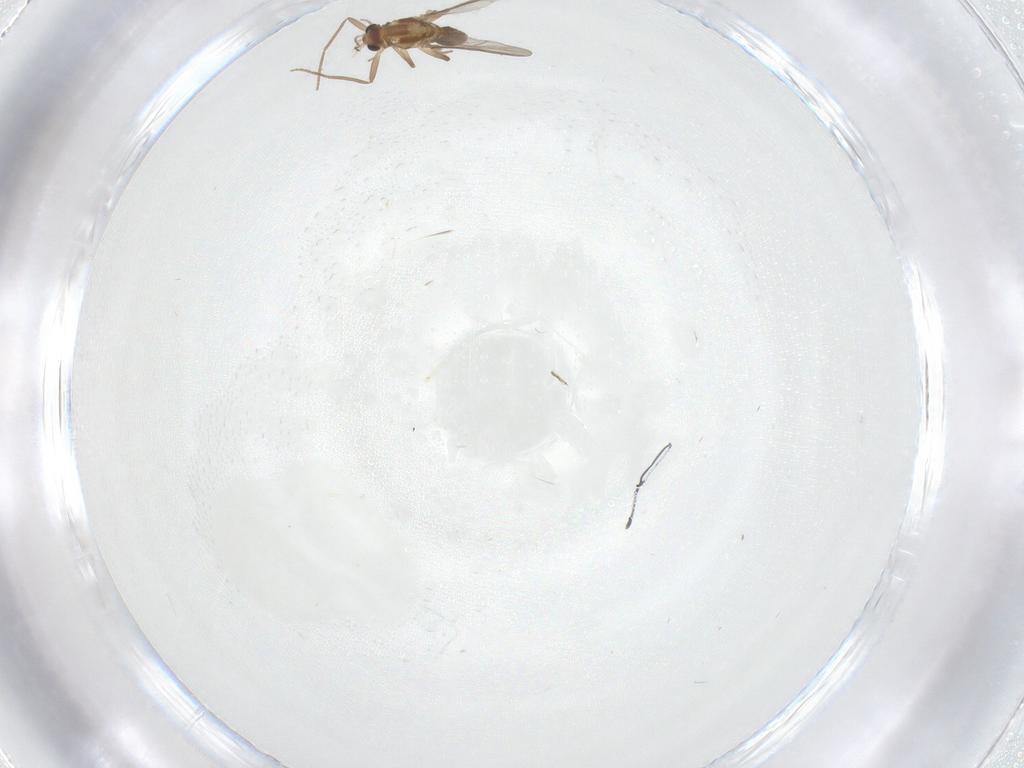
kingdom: Animalia
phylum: Arthropoda
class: Insecta
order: Diptera
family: Chironomidae
